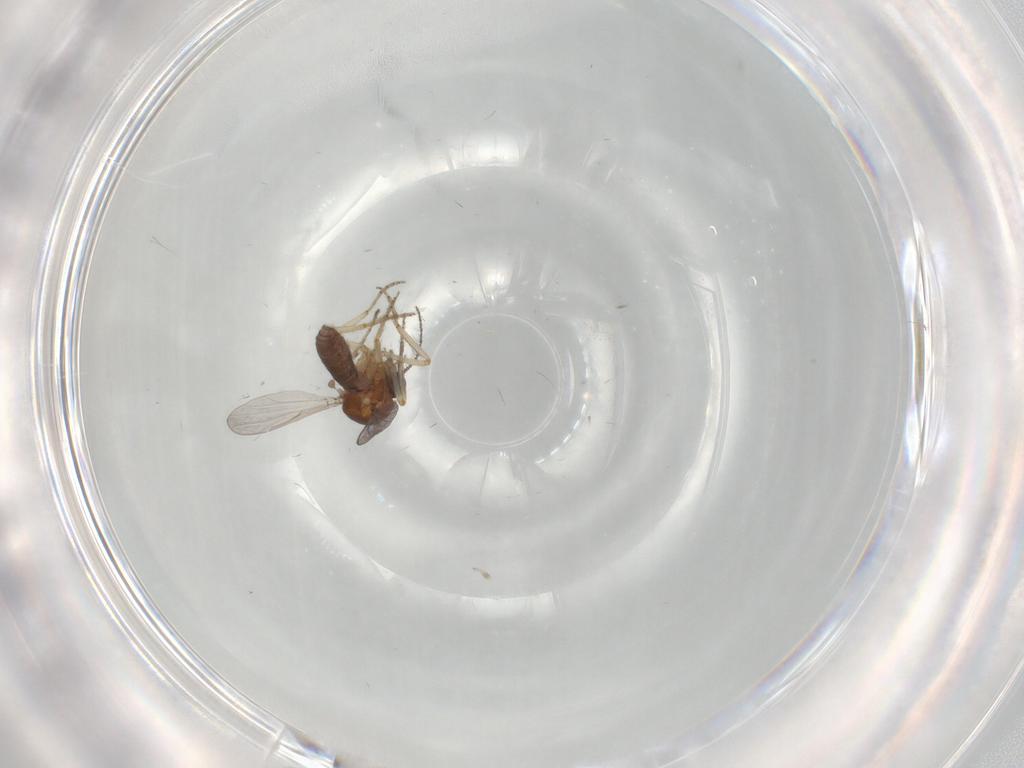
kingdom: Animalia
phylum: Arthropoda
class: Insecta
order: Diptera
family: Ceratopogonidae
